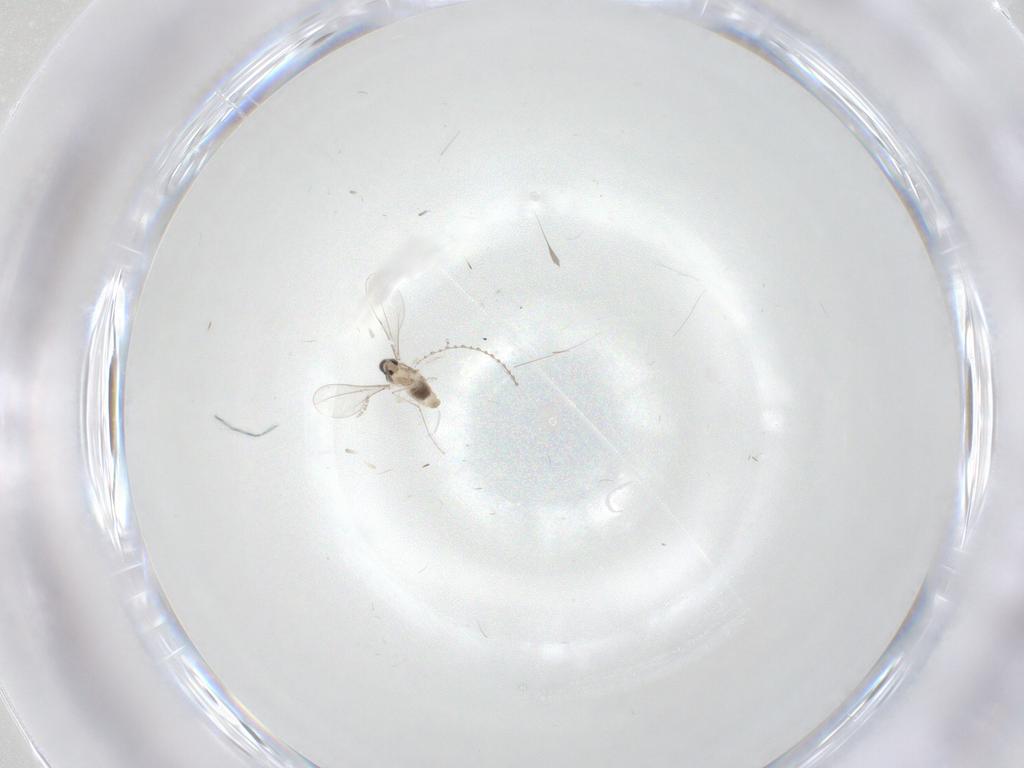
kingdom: Animalia
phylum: Arthropoda
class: Insecta
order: Diptera
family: Cecidomyiidae
